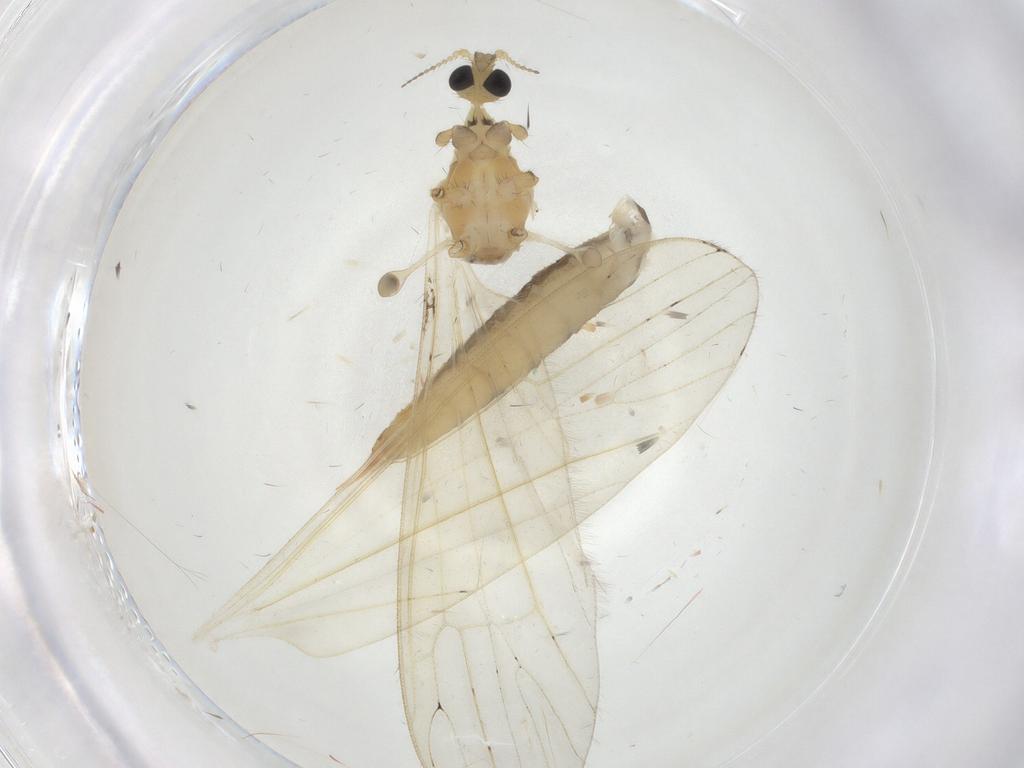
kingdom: Animalia
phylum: Arthropoda
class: Insecta
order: Diptera
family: Limoniidae
